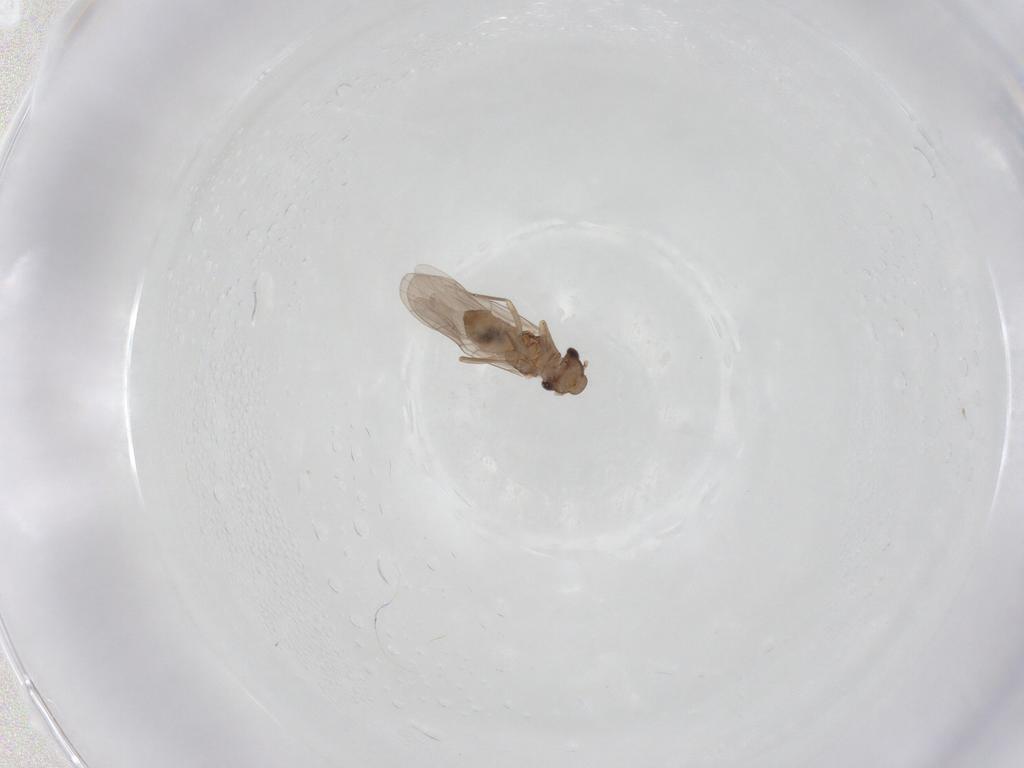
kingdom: Animalia
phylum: Arthropoda
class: Insecta
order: Psocodea
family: Lepidopsocidae
